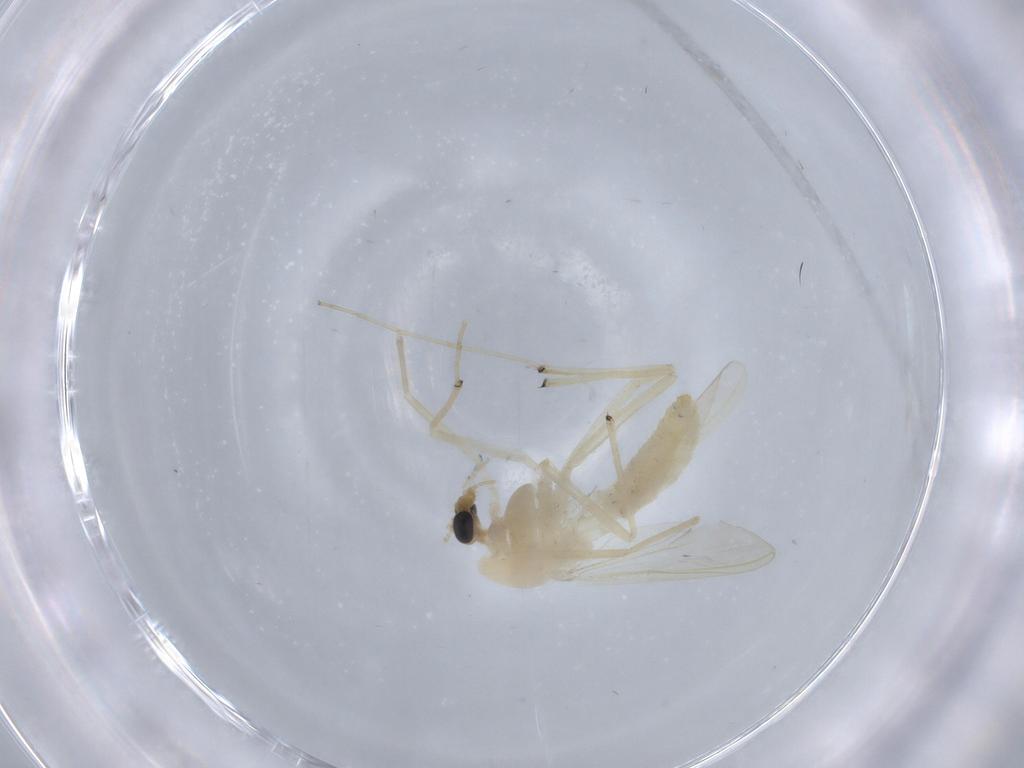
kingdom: Animalia
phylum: Arthropoda
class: Insecta
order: Diptera
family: Chironomidae
